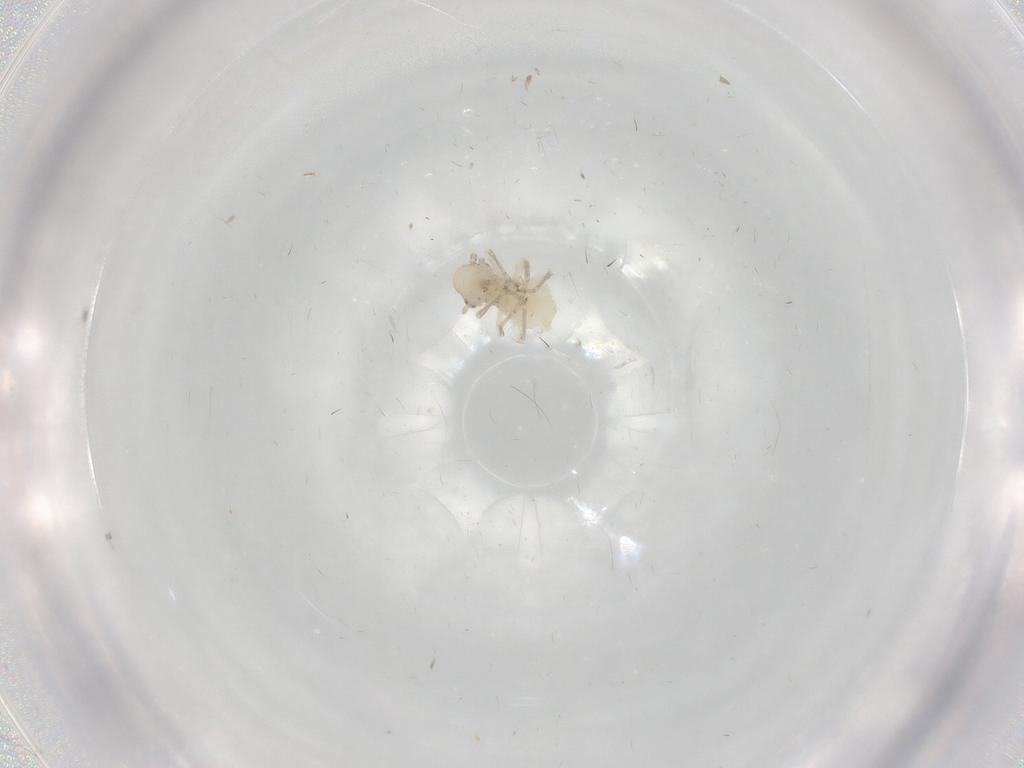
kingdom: Animalia
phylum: Arthropoda
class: Insecta
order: Psocodea
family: Caeciliusidae
